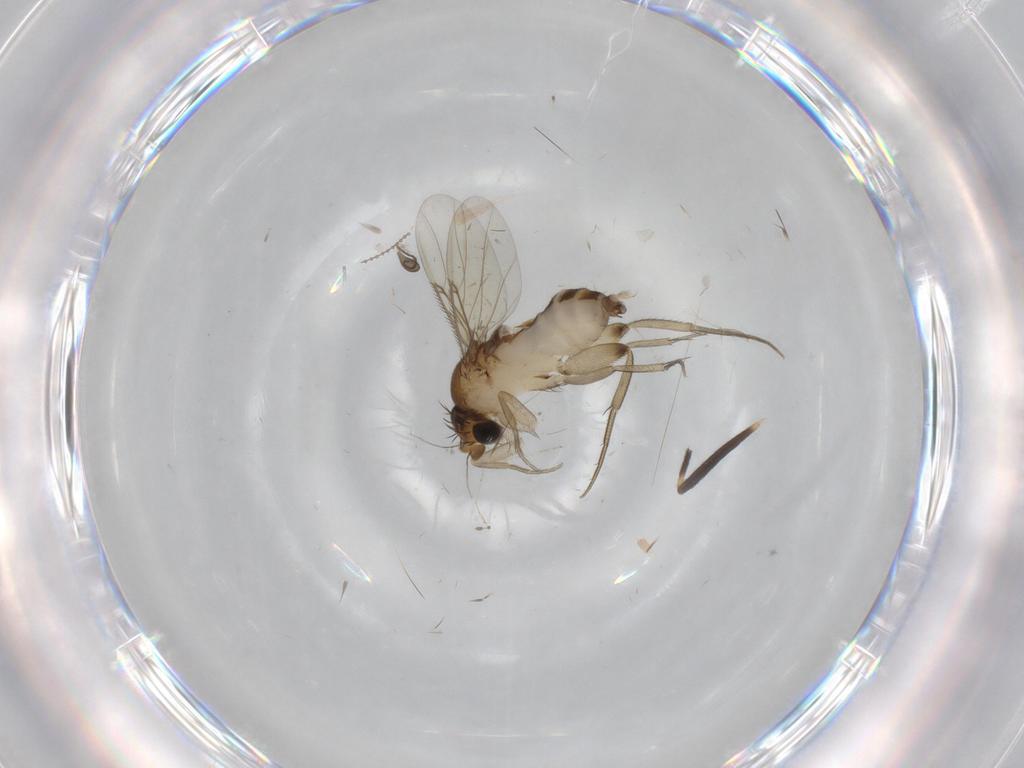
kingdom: Animalia
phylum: Arthropoda
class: Insecta
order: Diptera
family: Phoridae
